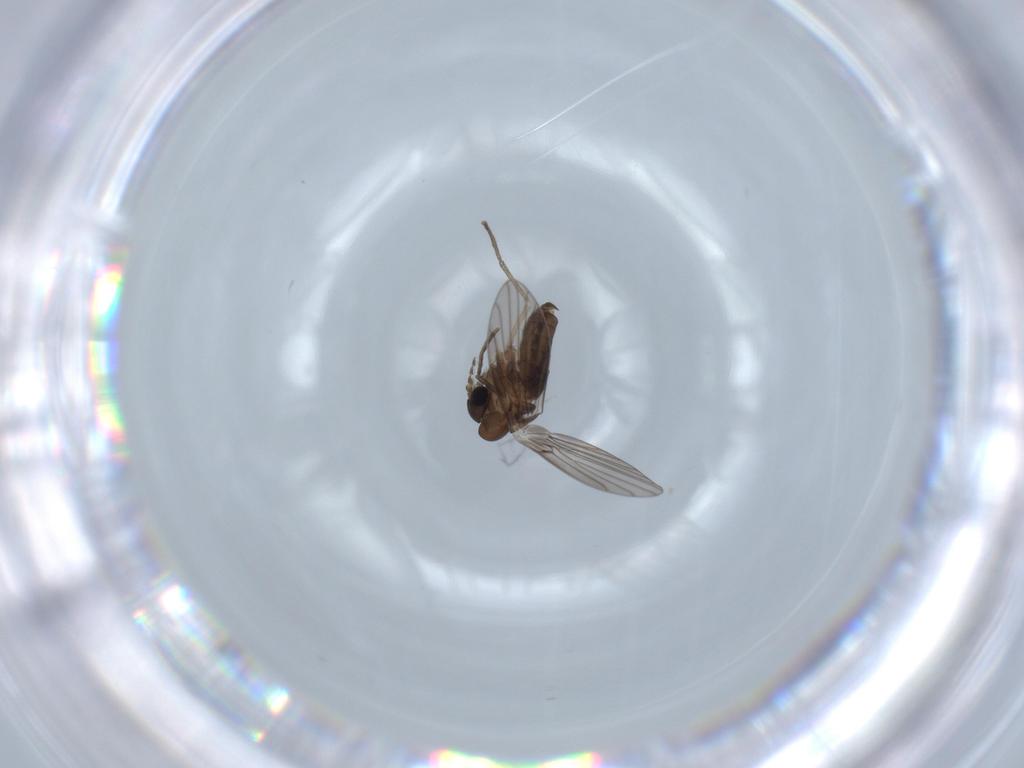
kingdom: Animalia
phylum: Arthropoda
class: Insecta
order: Diptera
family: Cecidomyiidae
